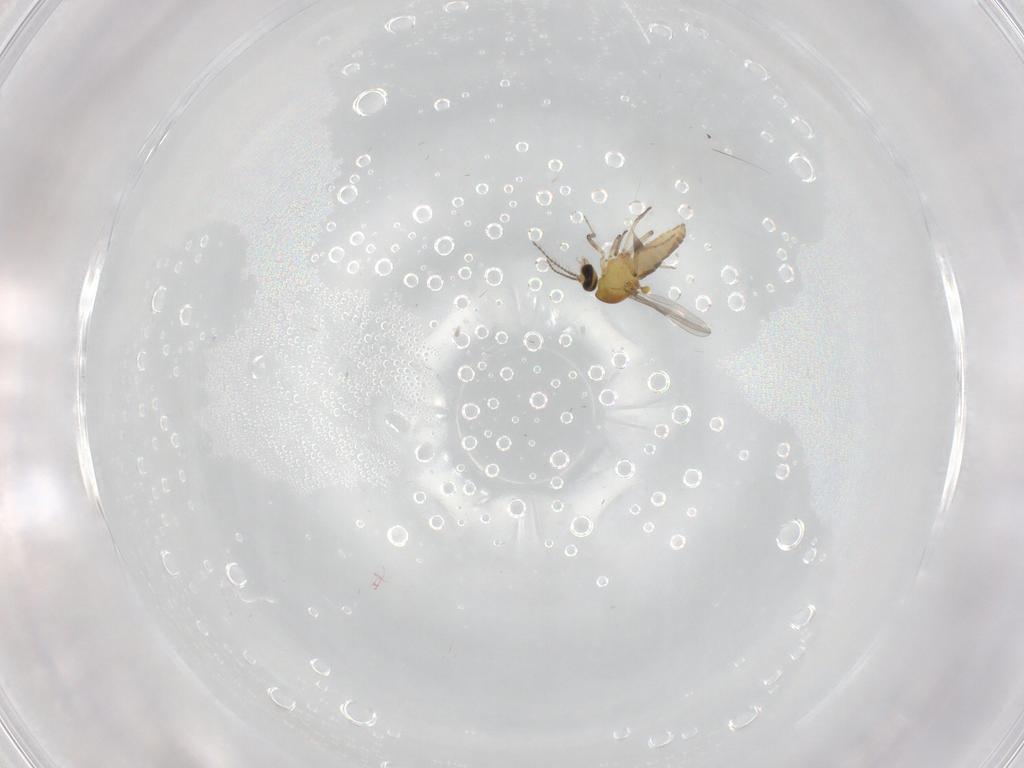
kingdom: Animalia
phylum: Arthropoda
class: Insecta
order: Diptera
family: Ceratopogonidae
